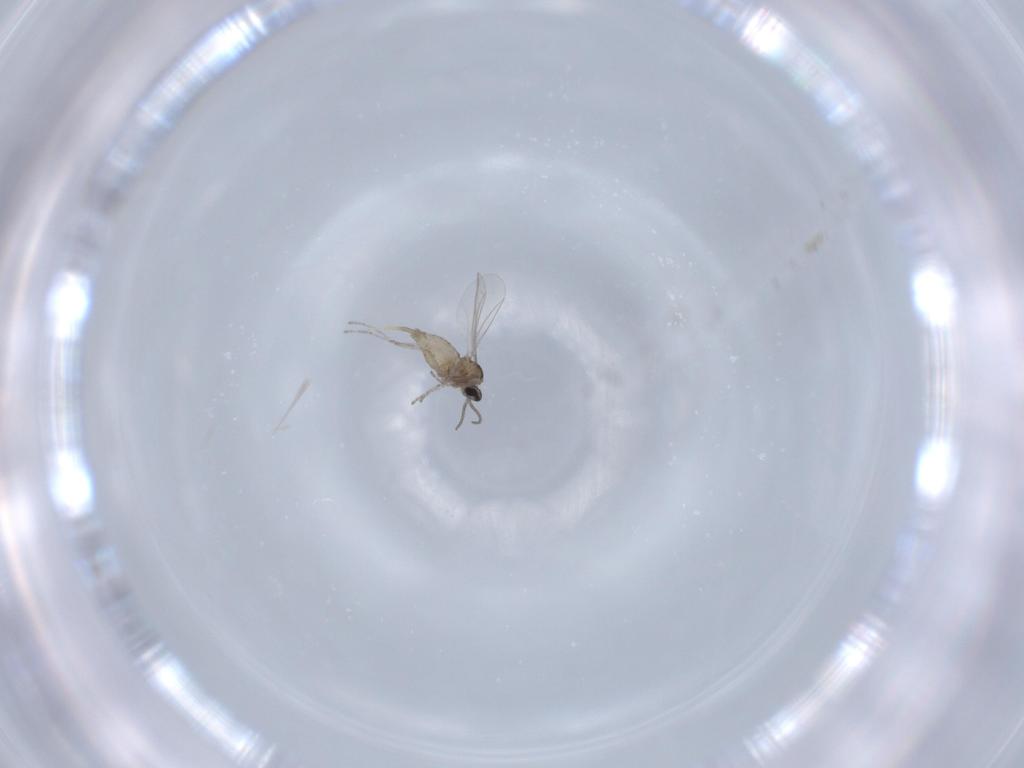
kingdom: Animalia
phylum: Arthropoda
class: Insecta
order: Diptera
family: Cecidomyiidae
